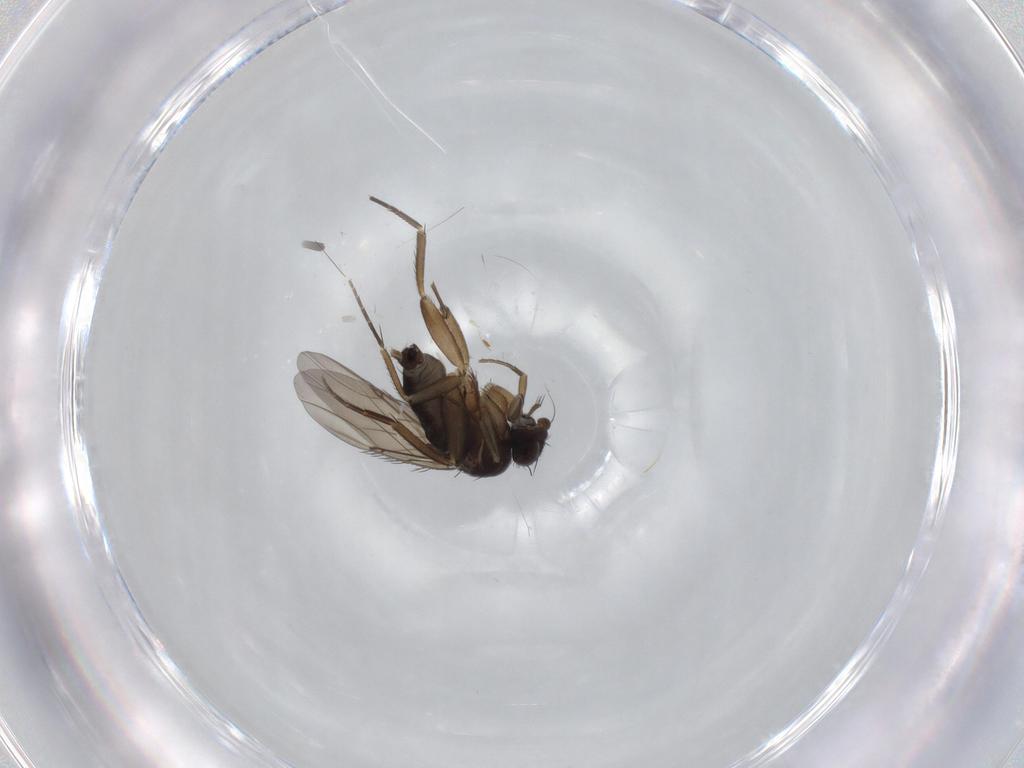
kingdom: Animalia
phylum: Arthropoda
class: Insecta
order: Diptera
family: Phoridae
